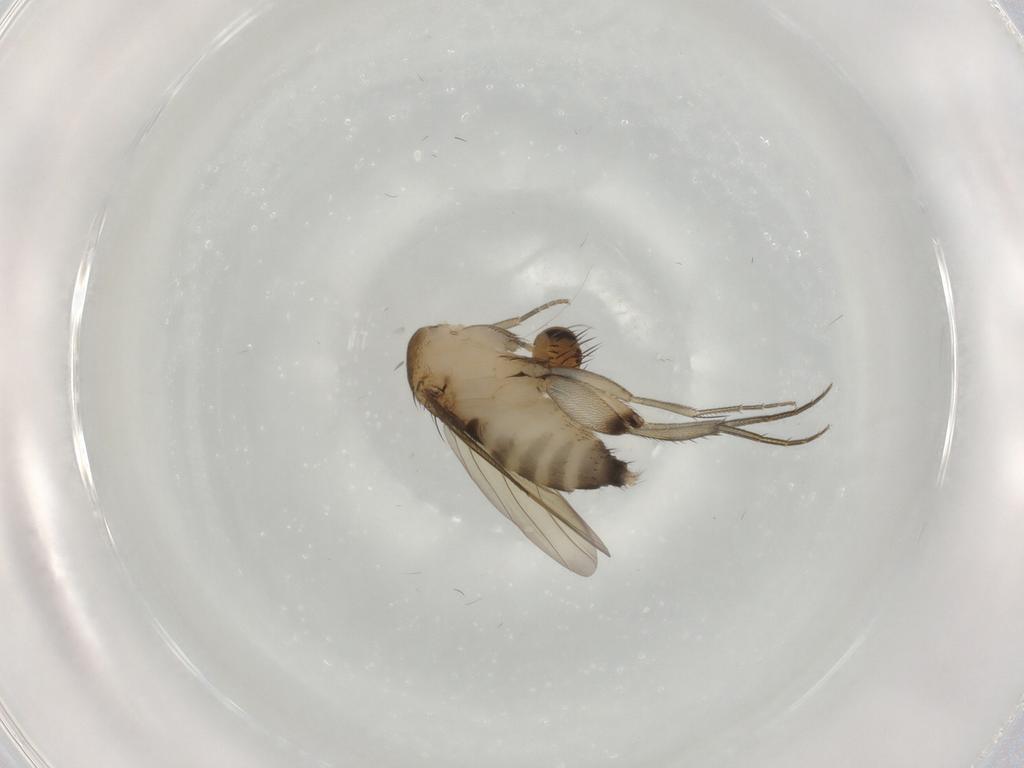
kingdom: Animalia
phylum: Arthropoda
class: Insecta
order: Diptera
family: Phoridae
